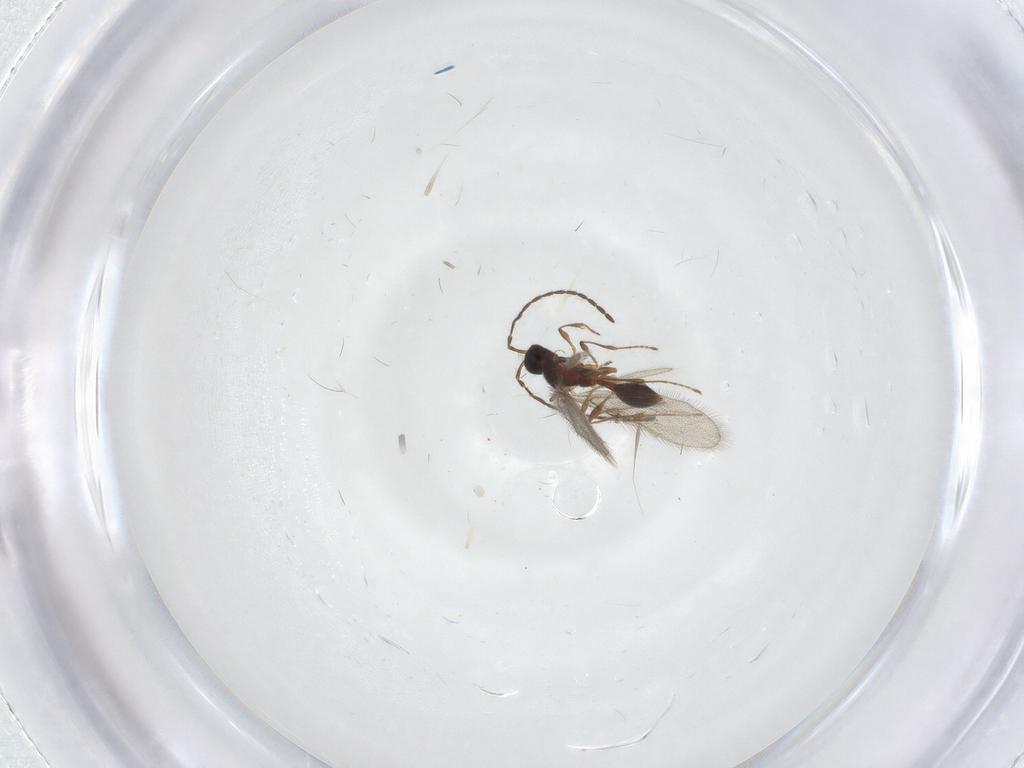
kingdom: Animalia
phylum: Arthropoda
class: Insecta
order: Hymenoptera
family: Diapriidae
